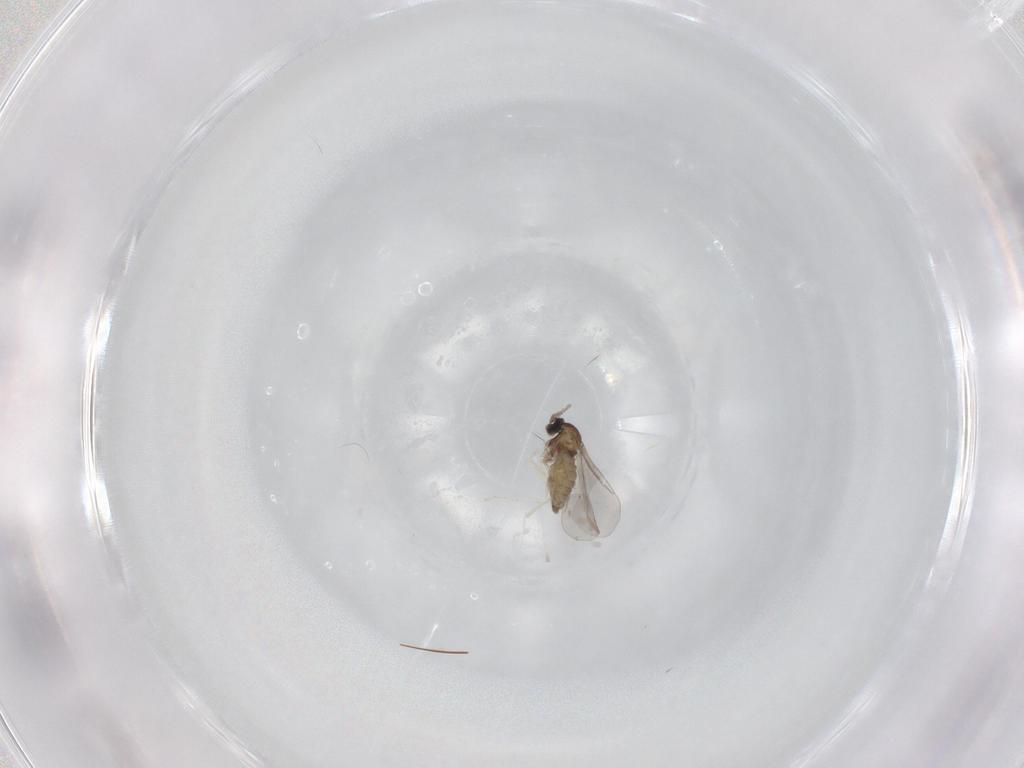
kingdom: Animalia
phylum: Arthropoda
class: Insecta
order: Diptera
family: Cecidomyiidae
